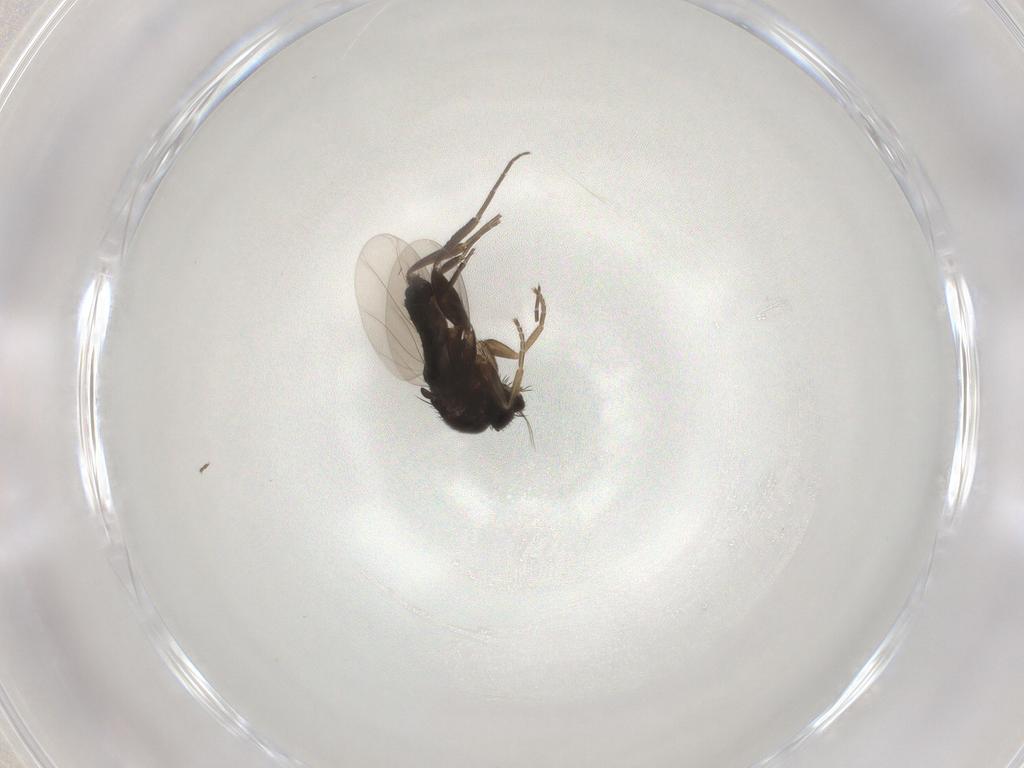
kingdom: Animalia
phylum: Arthropoda
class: Insecta
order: Diptera
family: Phoridae
